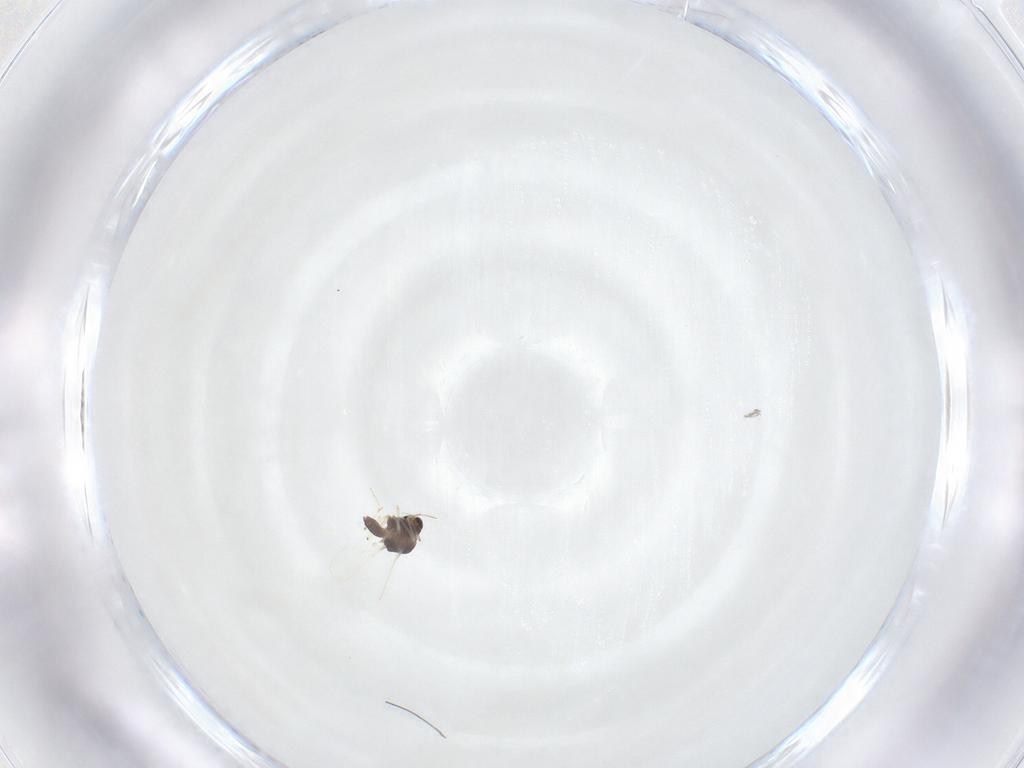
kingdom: Animalia
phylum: Arthropoda
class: Insecta
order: Diptera
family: Chironomidae
